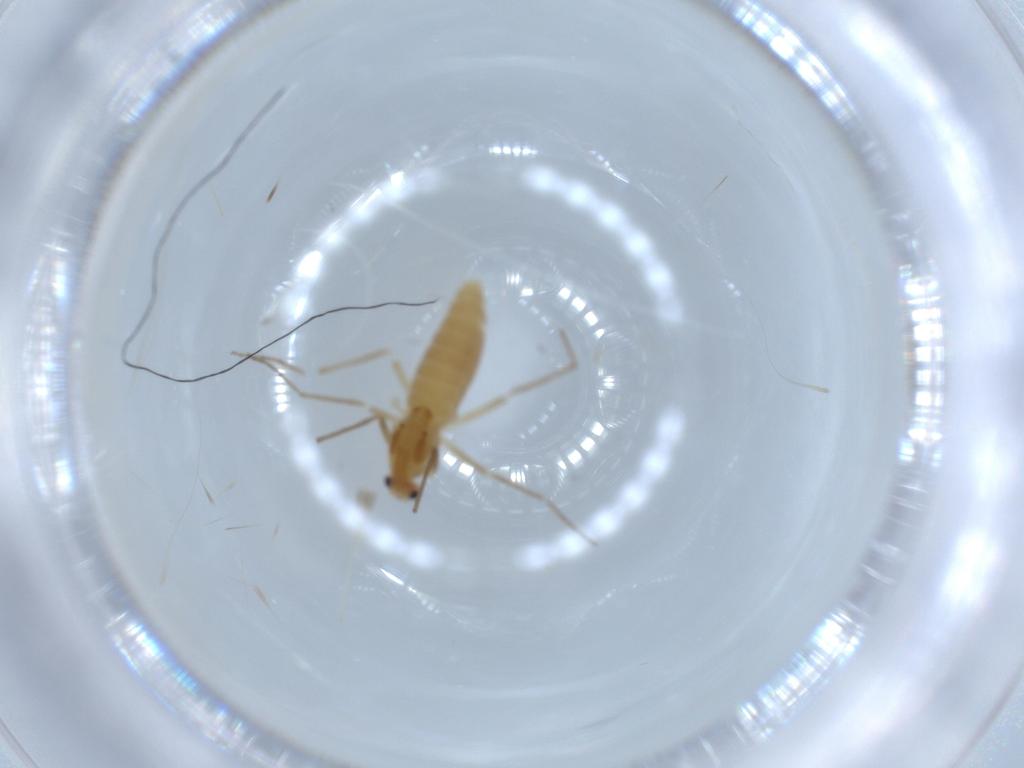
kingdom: Animalia
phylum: Arthropoda
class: Insecta
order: Diptera
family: Chironomidae
